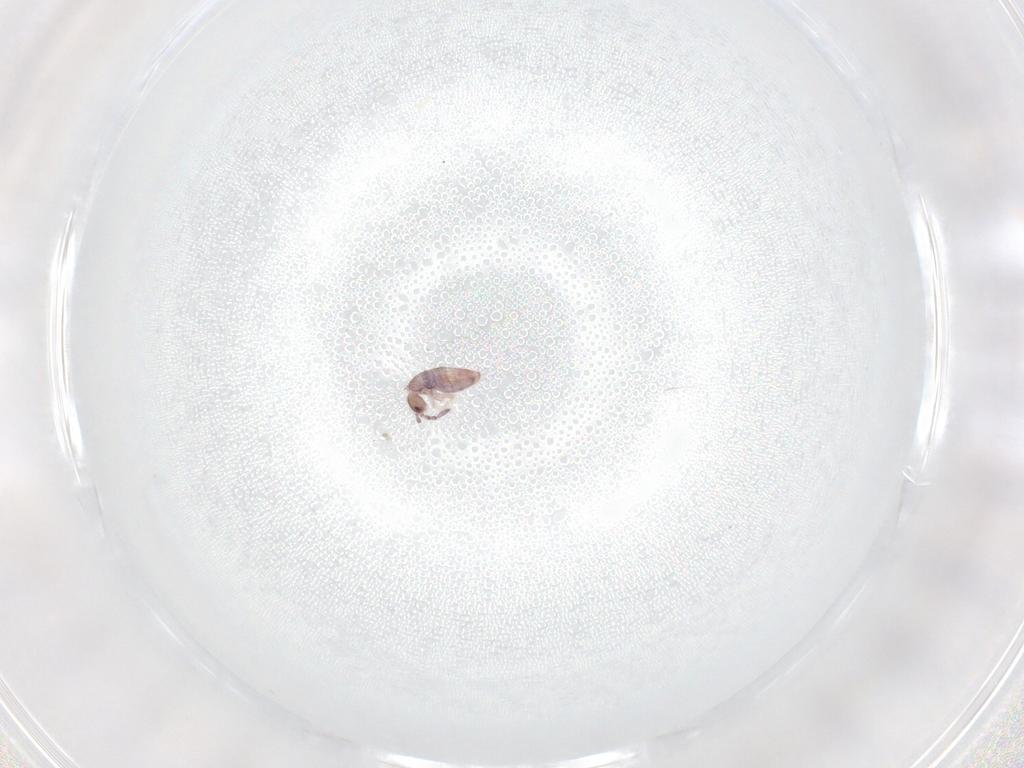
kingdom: Animalia
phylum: Arthropoda
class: Collembola
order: Entomobryomorpha
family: Entomobryidae
